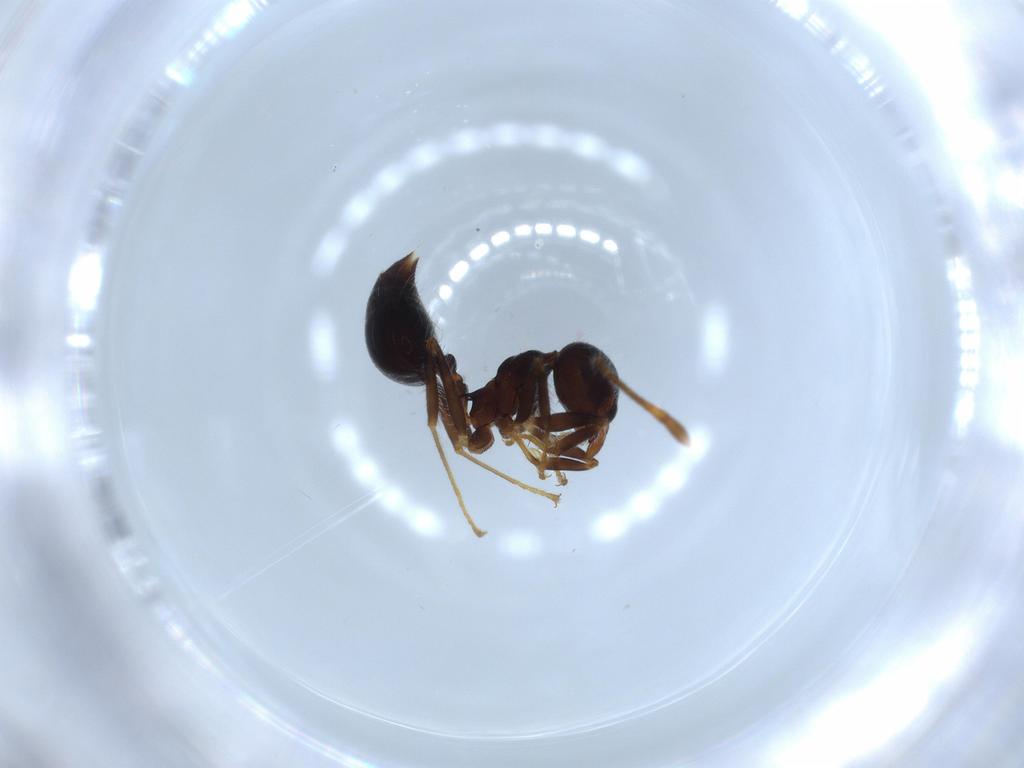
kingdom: Animalia
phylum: Arthropoda
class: Insecta
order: Hymenoptera
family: Formicidae
